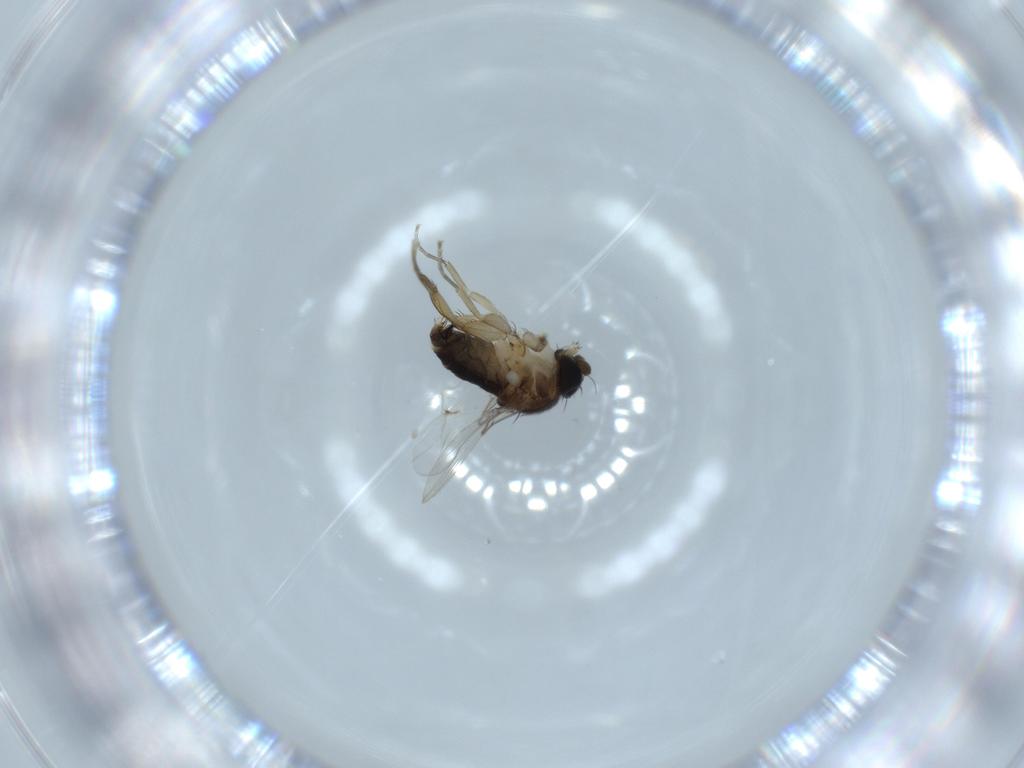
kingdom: Animalia
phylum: Arthropoda
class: Insecta
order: Diptera
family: Phoridae
